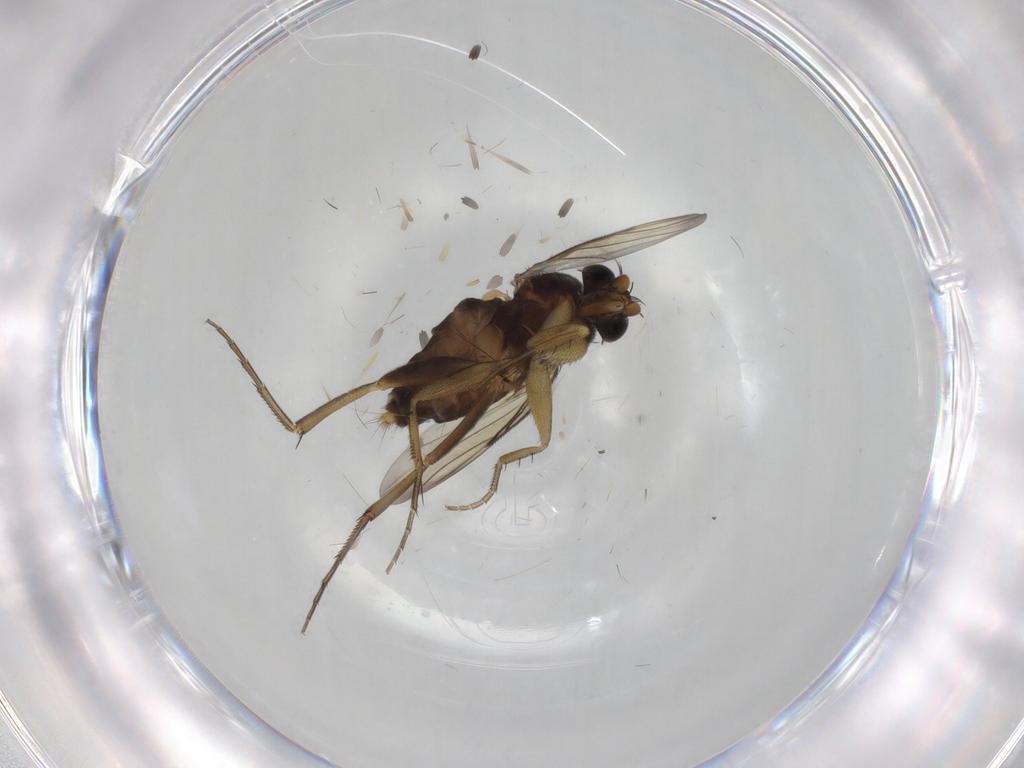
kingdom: Animalia
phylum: Arthropoda
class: Insecta
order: Diptera
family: Phoridae
